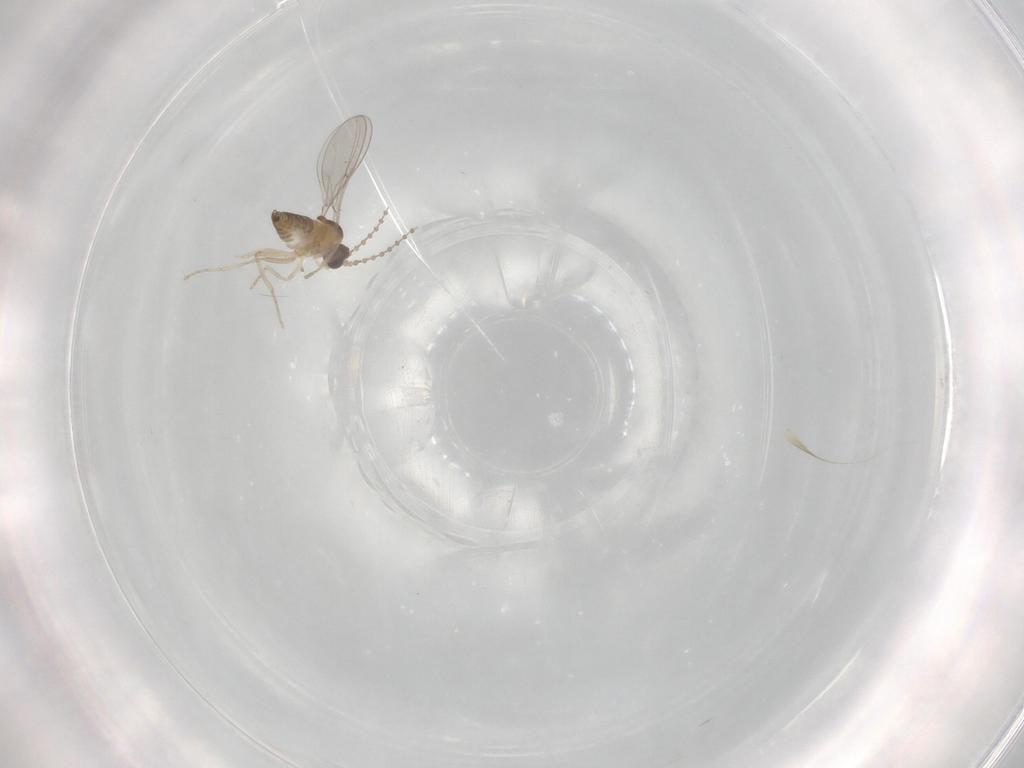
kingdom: Animalia
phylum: Arthropoda
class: Insecta
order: Diptera
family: Cecidomyiidae
